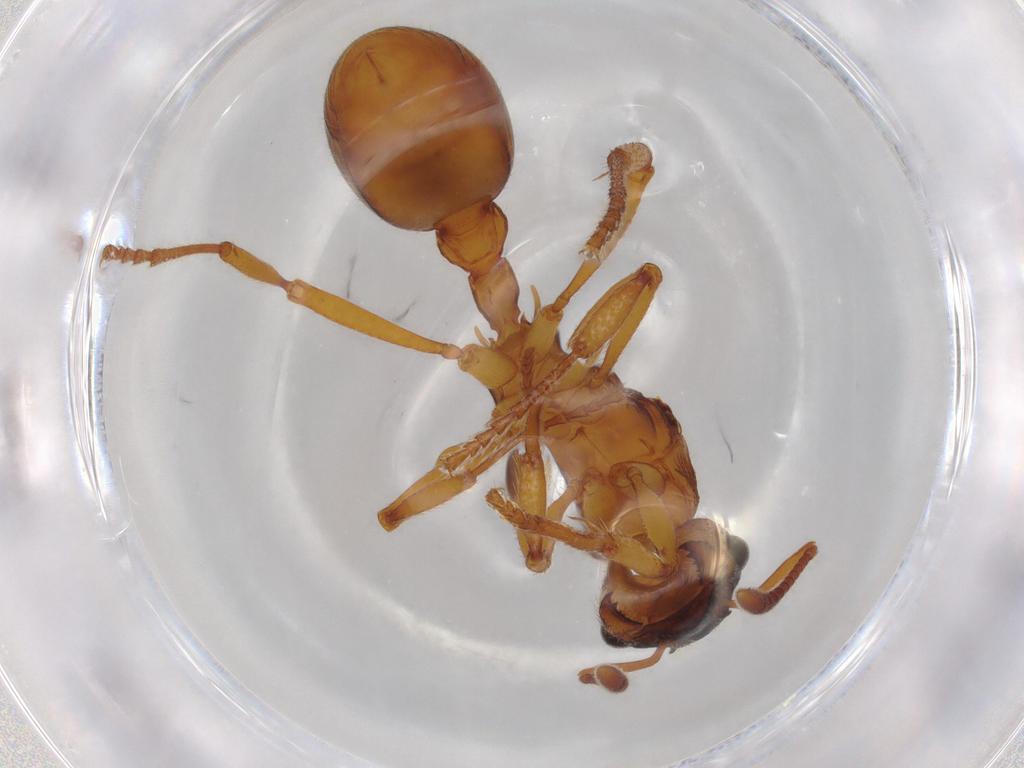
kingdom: Animalia
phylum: Arthropoda
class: Insecta
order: Hymenoptera
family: Formicidae
